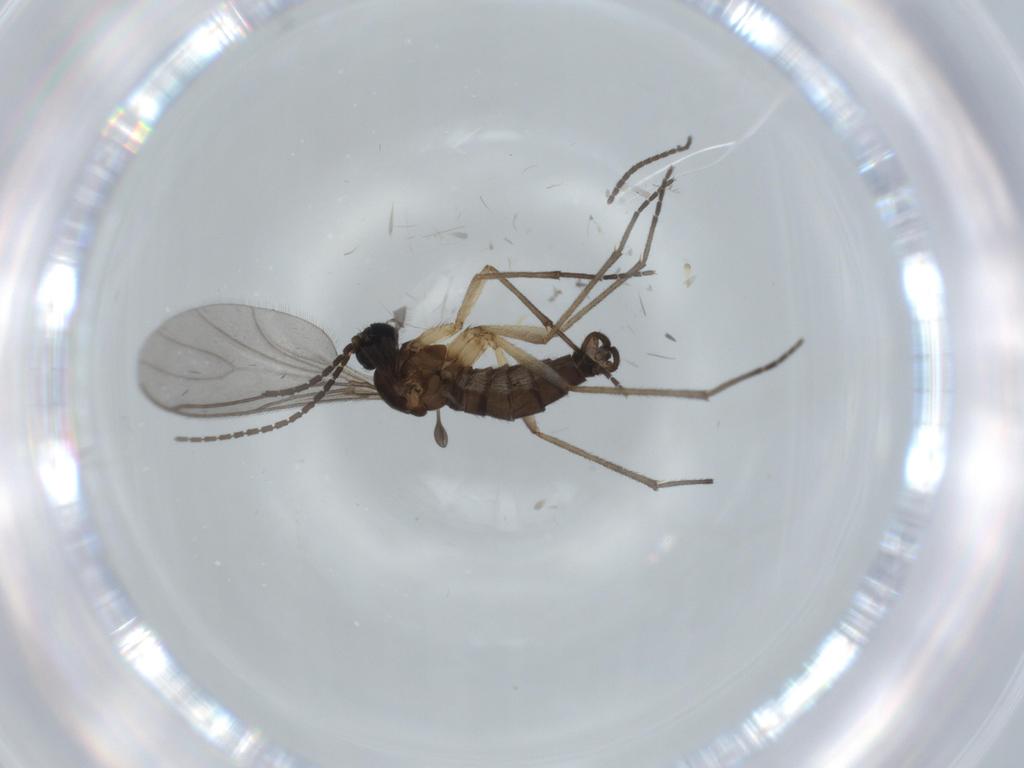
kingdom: Animalia
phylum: Arthropoda
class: Insecta
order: Diptera
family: Sciaridae
